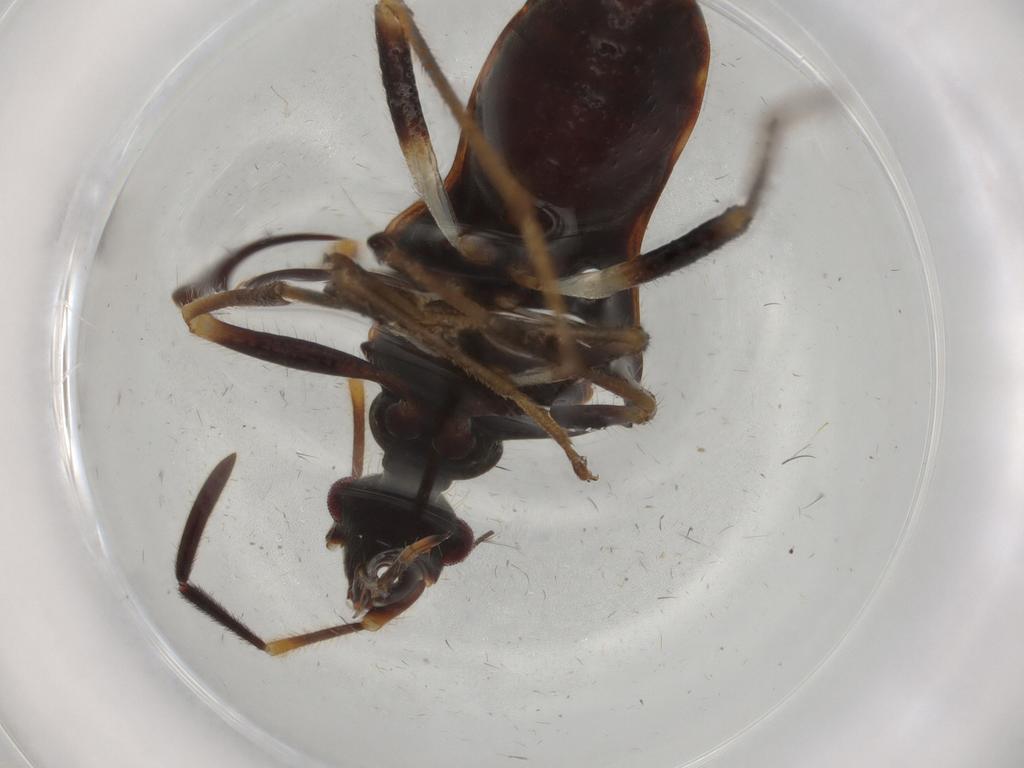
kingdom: Animalia
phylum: Arthropoda
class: Insecta
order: Hemiptera
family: Rhyparochromidae
